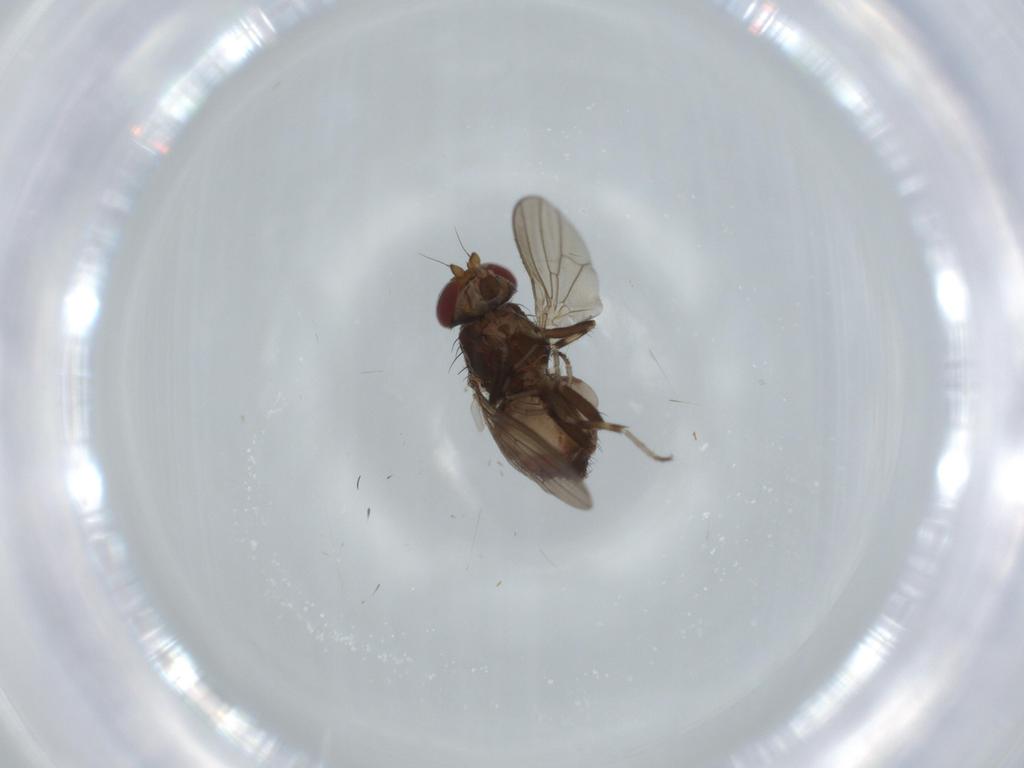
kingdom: Animalia
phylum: Arthropoda
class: Insecta
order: Diptera
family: Heleomyzidae
